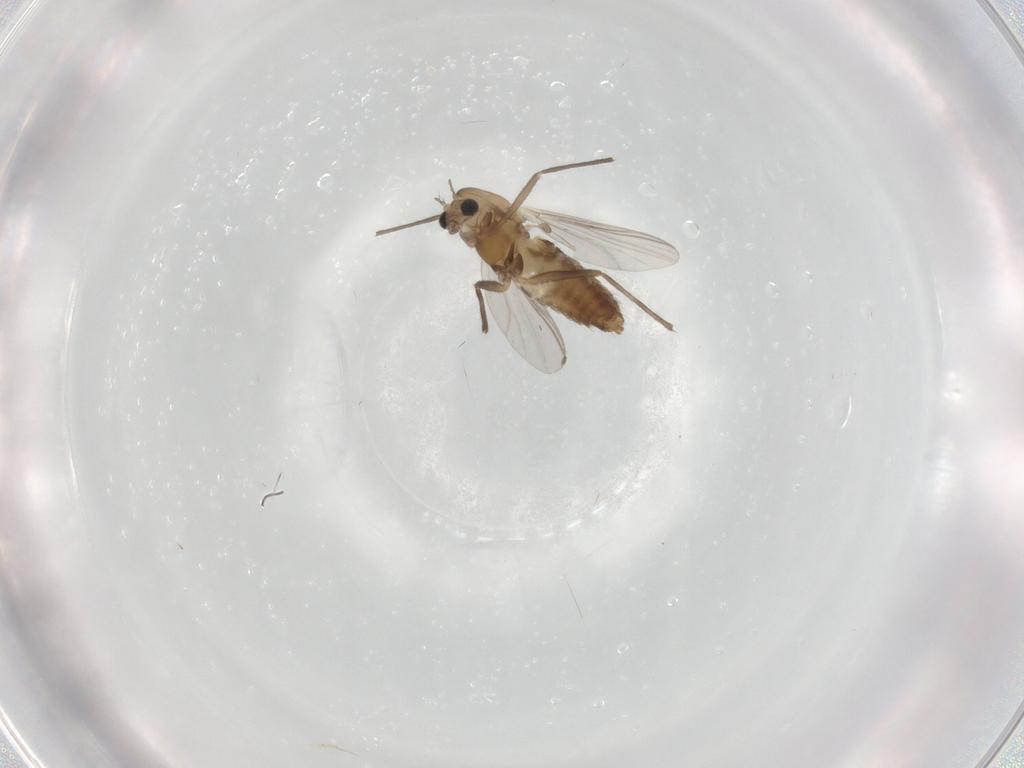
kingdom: Animalia
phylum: Arthropoda
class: Insecta
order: Diptera
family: Chironomidae
